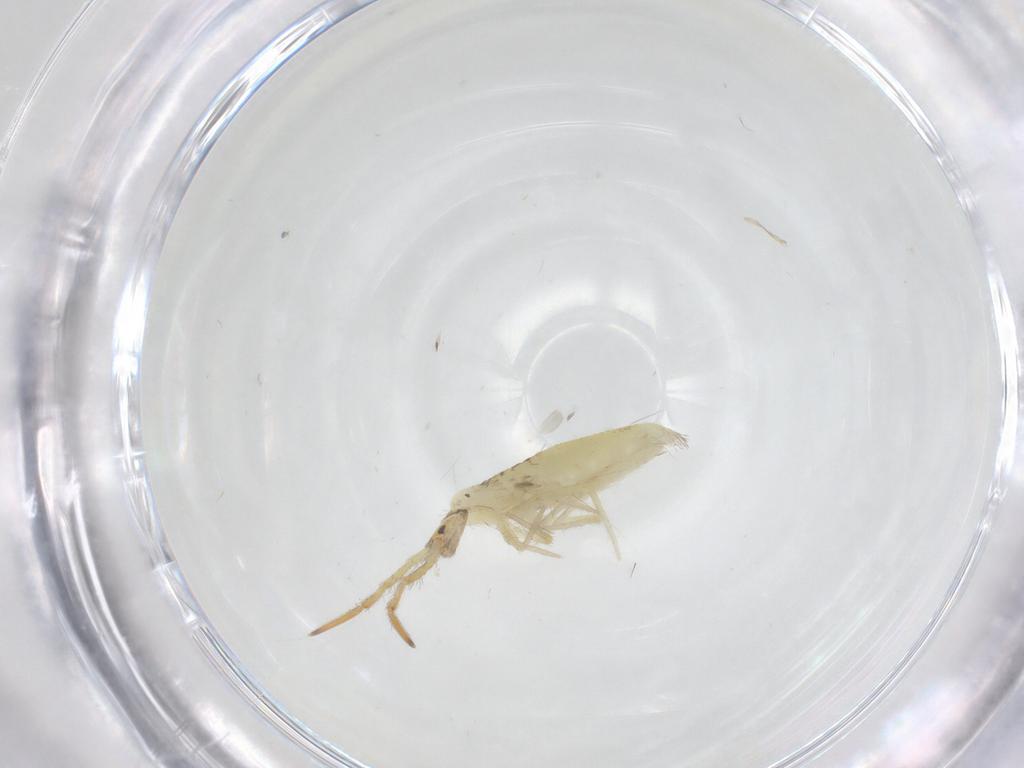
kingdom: Animalia
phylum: Arthropoda
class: Collembola
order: Entomobryomorpha
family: Entomobryidae
